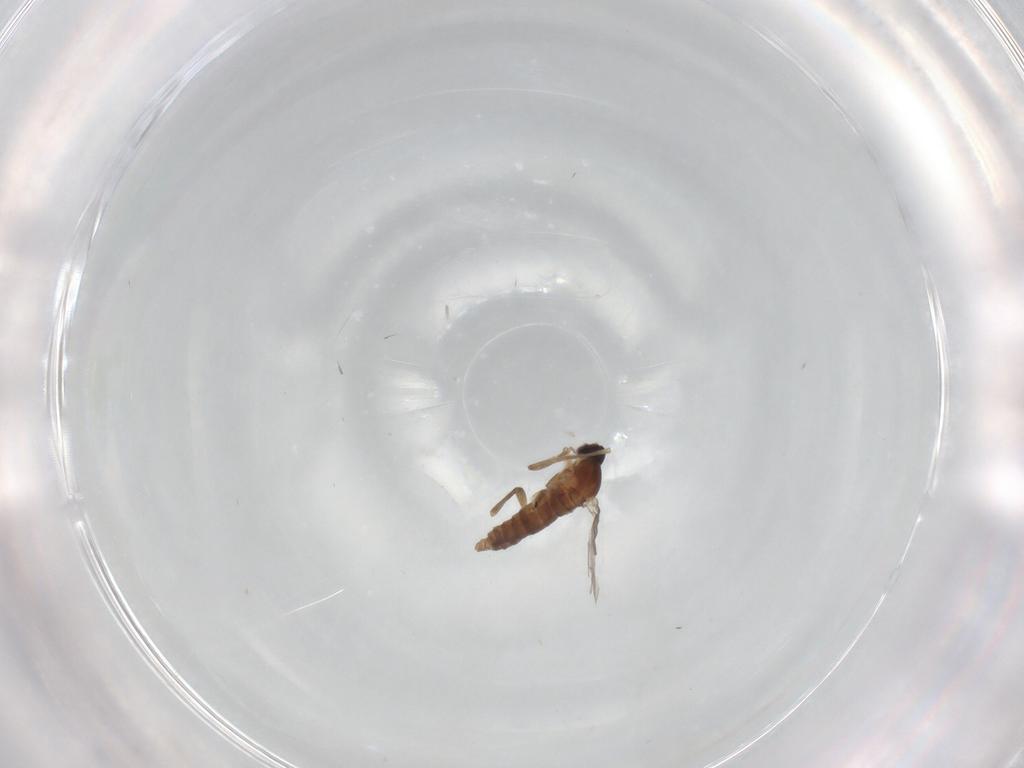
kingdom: Animalia
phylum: Arthropoda
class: Insecta
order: Diptera
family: Cecidomyiidae
